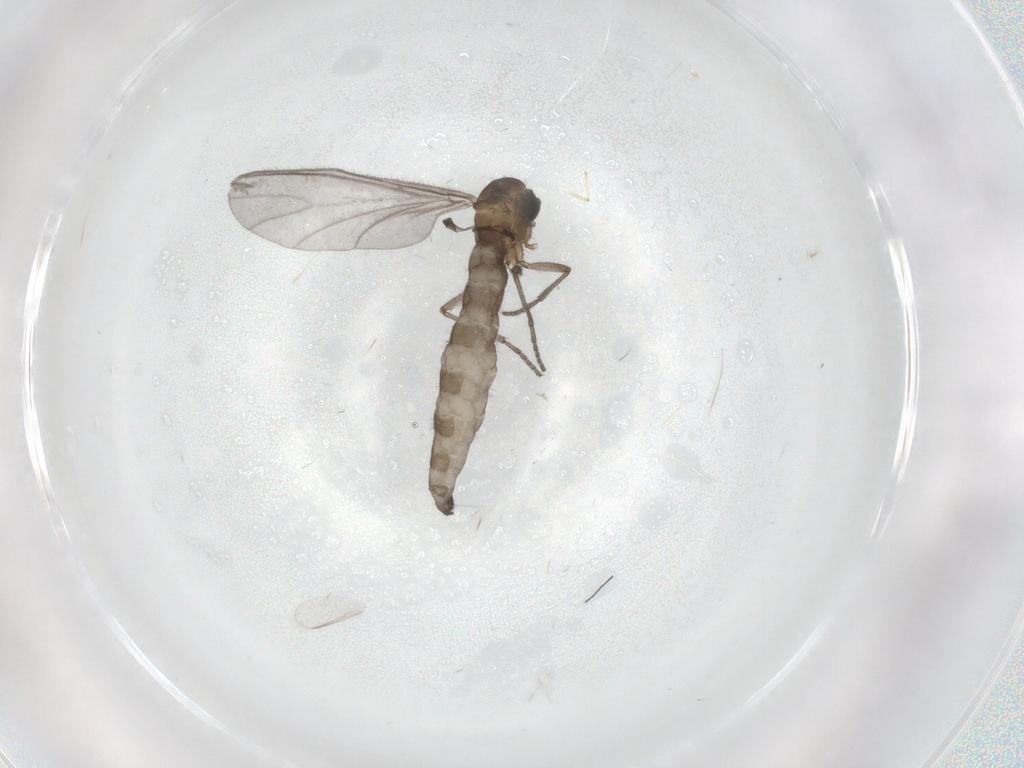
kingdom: Animalia
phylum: Arthropoda
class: Insecta
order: Diptera
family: Sciaridae
